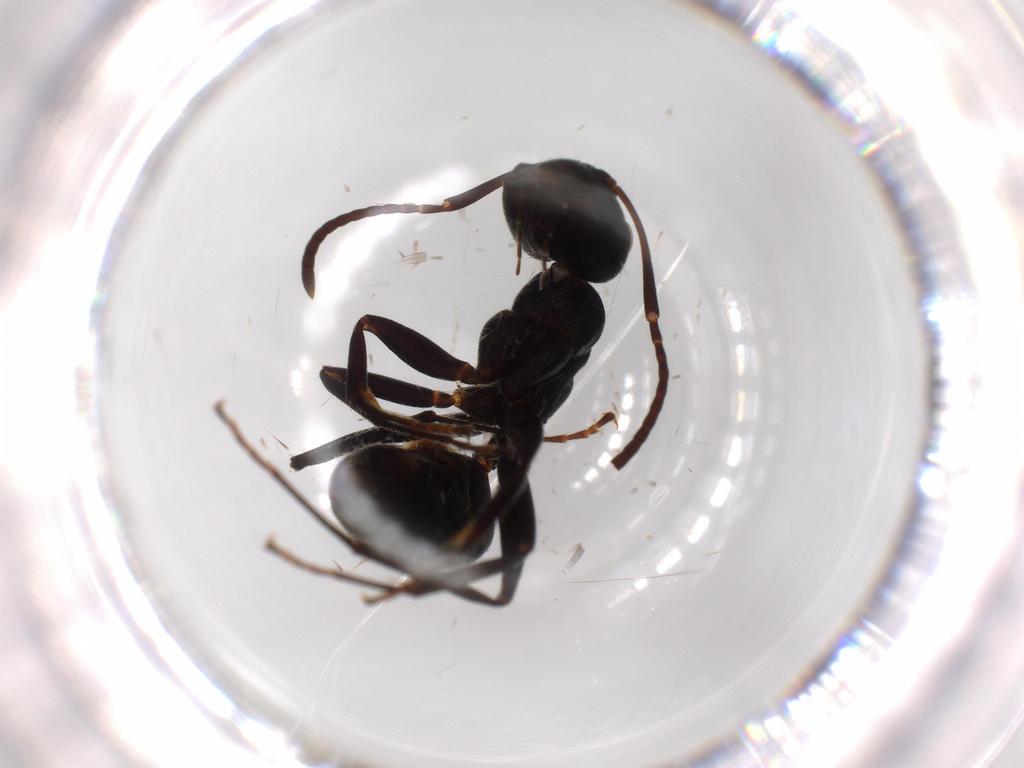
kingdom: Animalia
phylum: Arthropoda
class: Insecta
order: Hymenoptera
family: Formicidae
